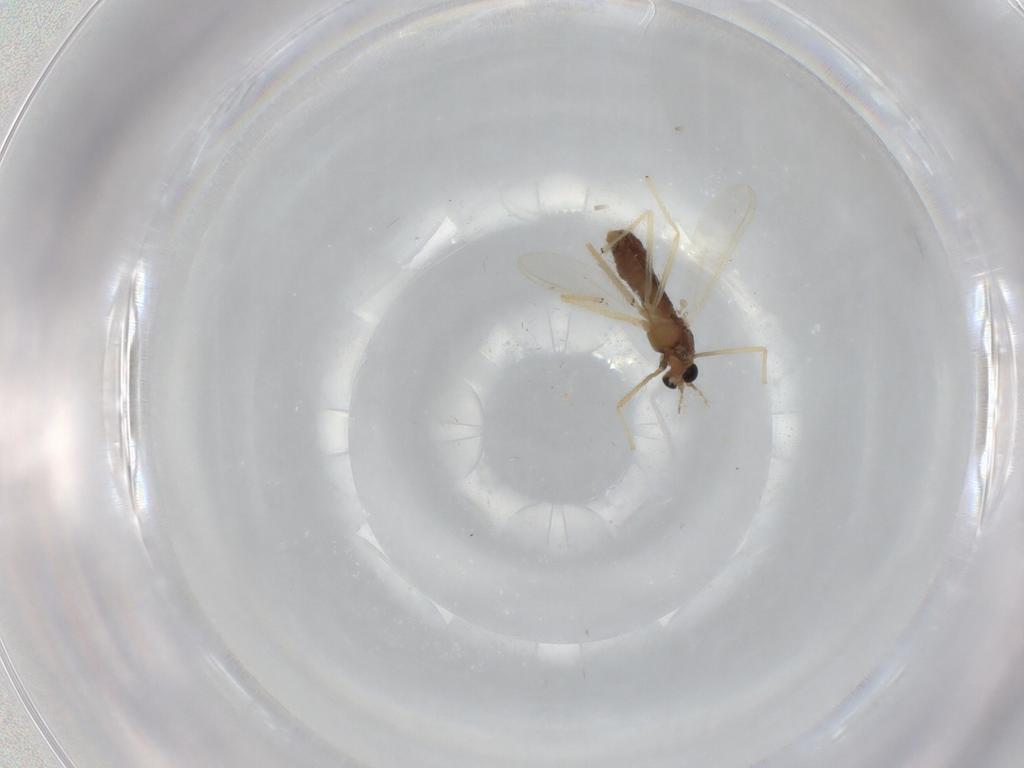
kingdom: Animalia
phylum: Arthropoda
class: Insecta
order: Diptera
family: Chironomidae
